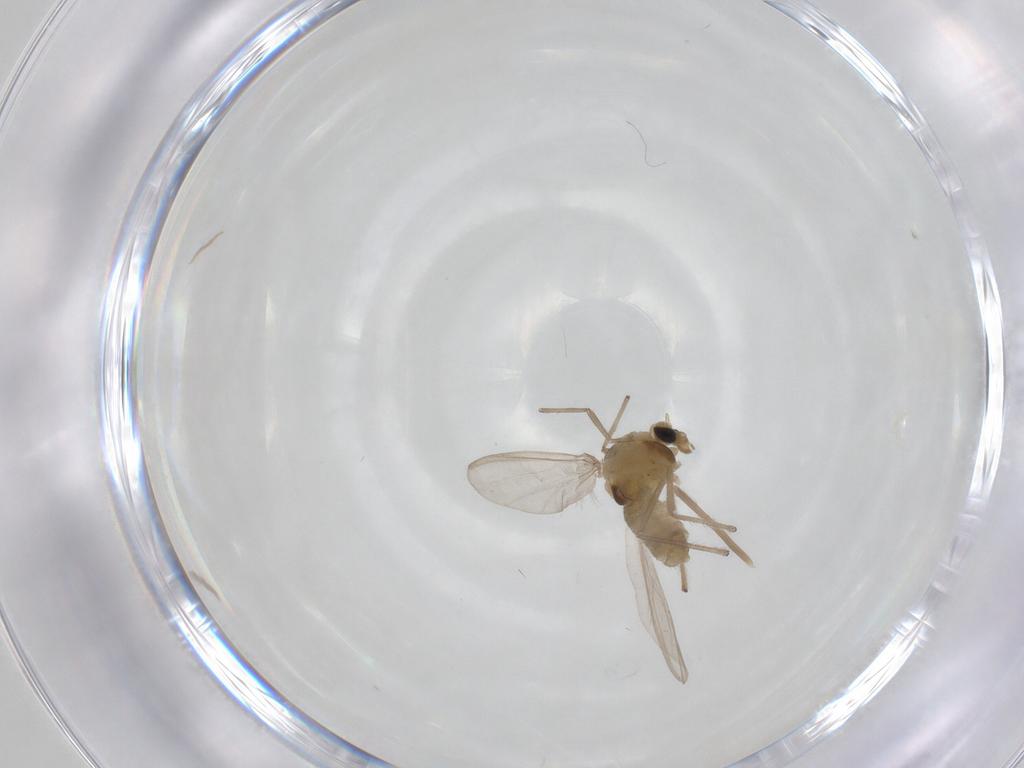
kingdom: Animalia
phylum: Arthropoda
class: Insecta
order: Diptera
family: Chironomidae
